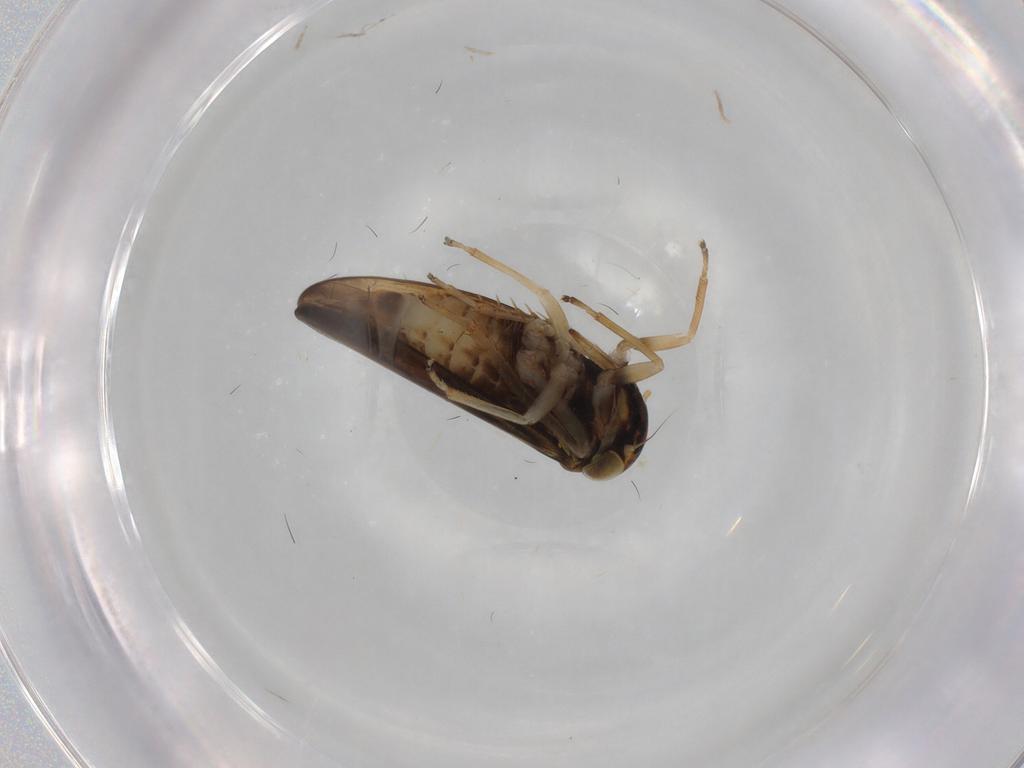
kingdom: Animalia
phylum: Arthropoda
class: Insecta
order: Hemiptera
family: Cicadellidae
